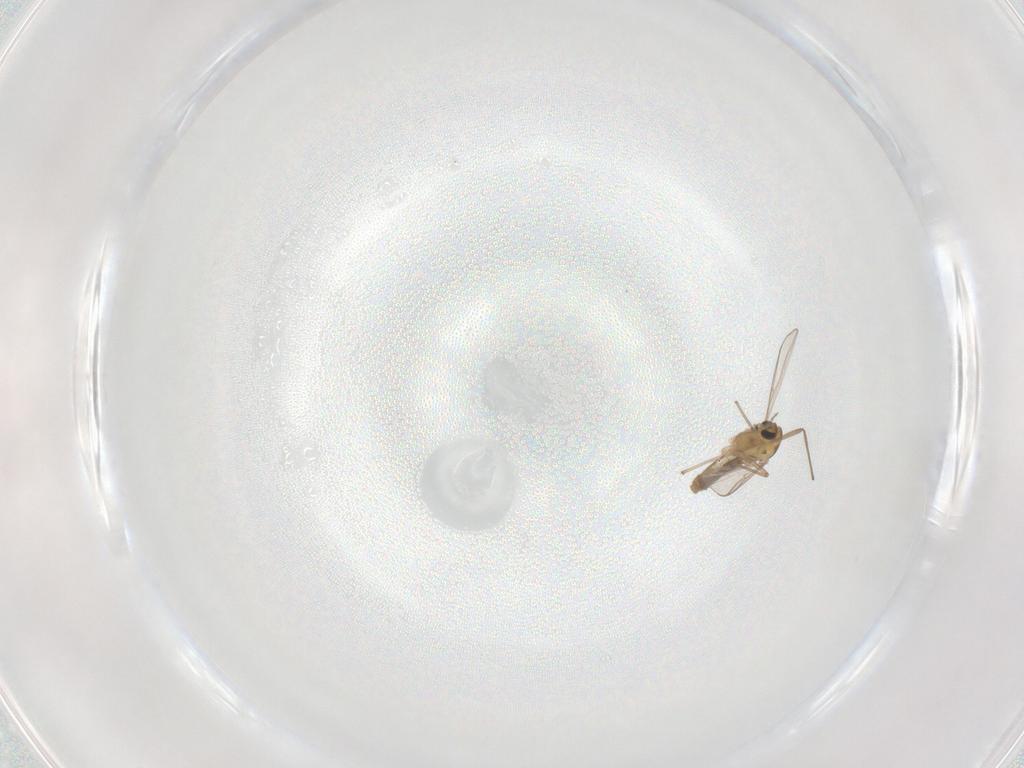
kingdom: Animalia
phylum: Arthropoda
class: Insecta
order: Diptera
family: Chironomidae
